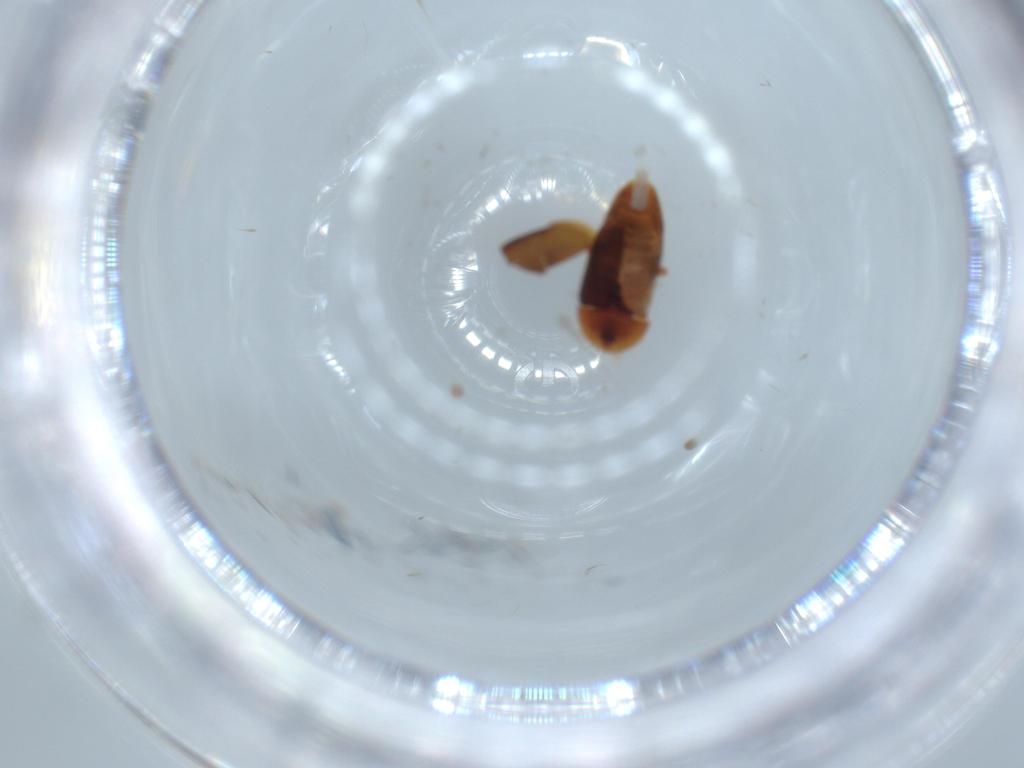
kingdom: Animalia
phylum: Arthropoda
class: Insecta
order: Coleoptera
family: Corylophidae
